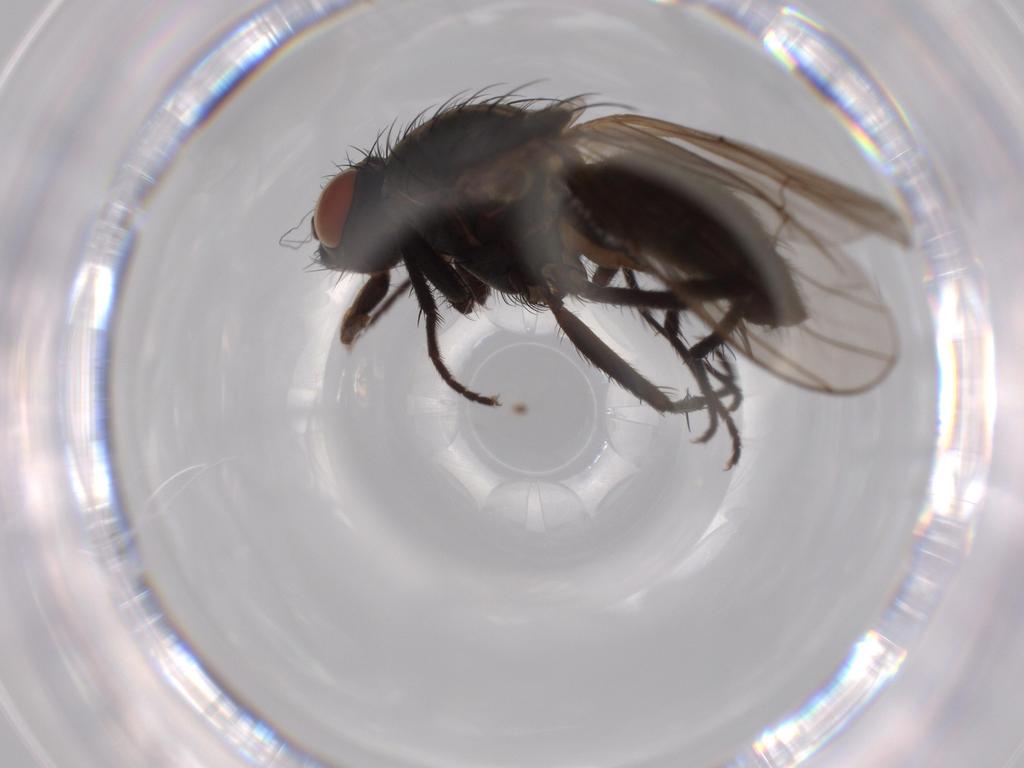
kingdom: Animalia
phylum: Arthropoda
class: Insecta
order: Diptera
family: Anthomyiidae
